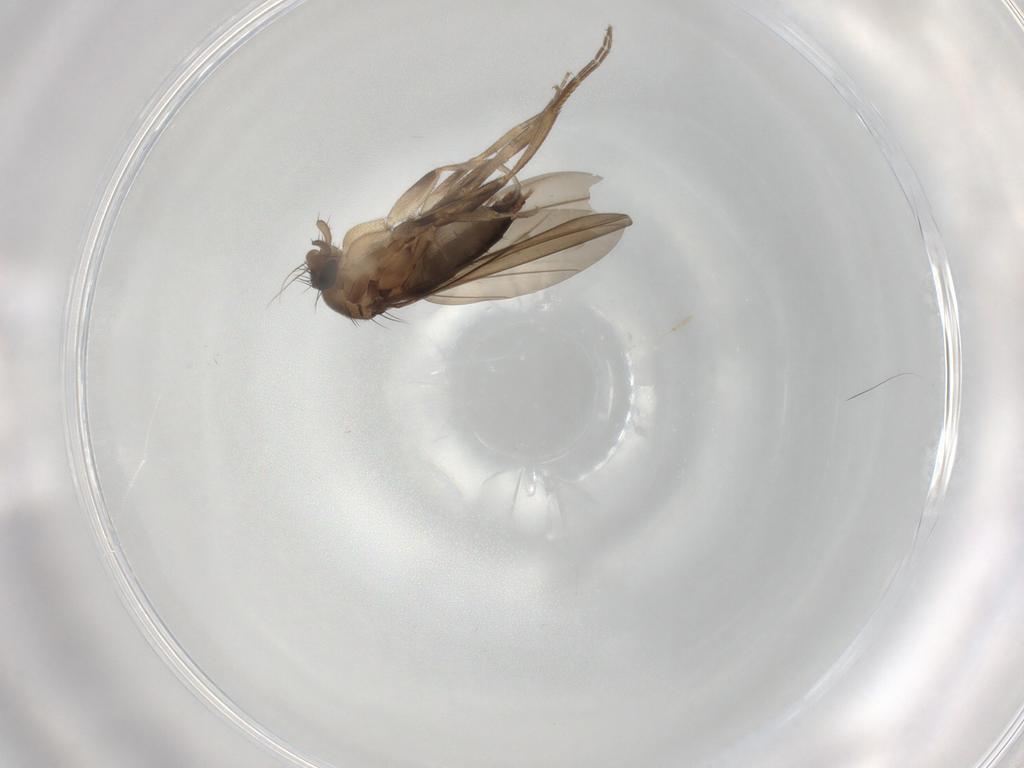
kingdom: Animalia
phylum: Arthropoda
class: Insecta
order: Diptera
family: Phoridae
